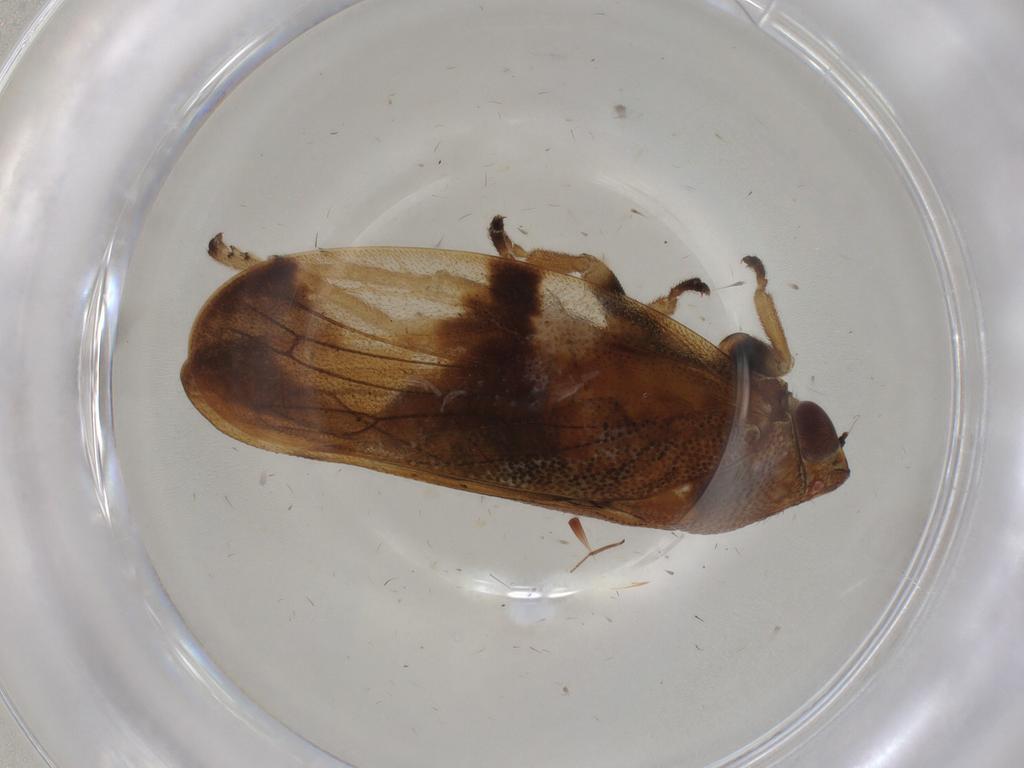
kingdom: Animalia
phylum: Arthropoda
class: Insecta
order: Hemiptera
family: Aphrophoridae
